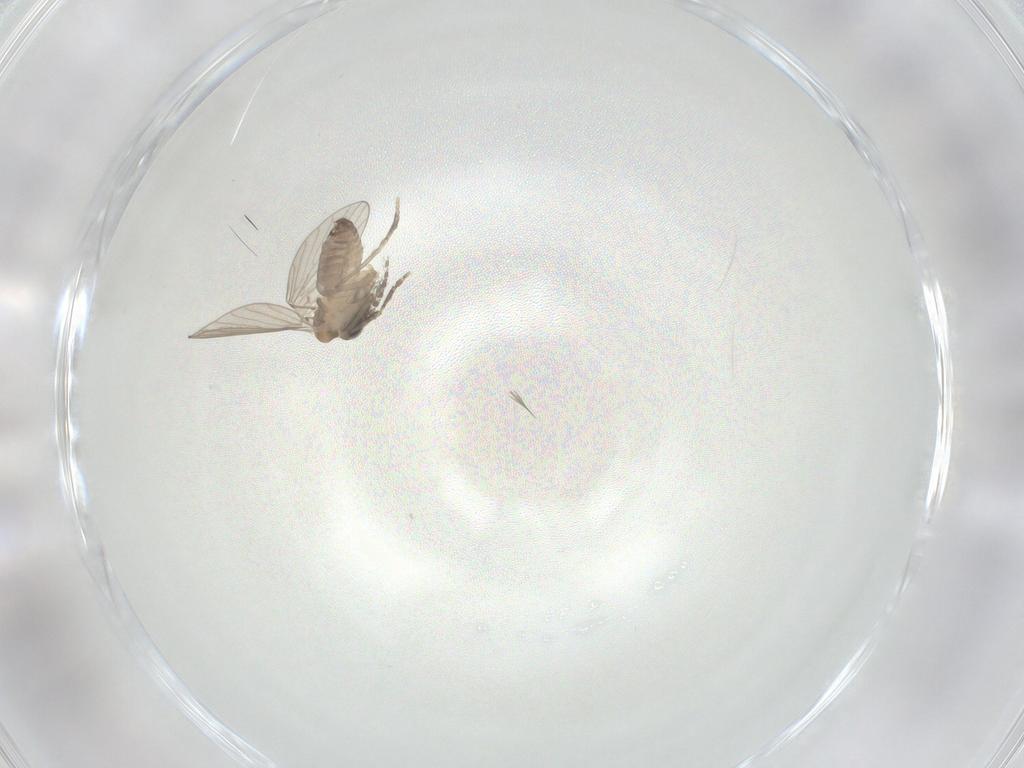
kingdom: Animalia
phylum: Arthropoda
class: Insecta
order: Diptera
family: Psychodidae
